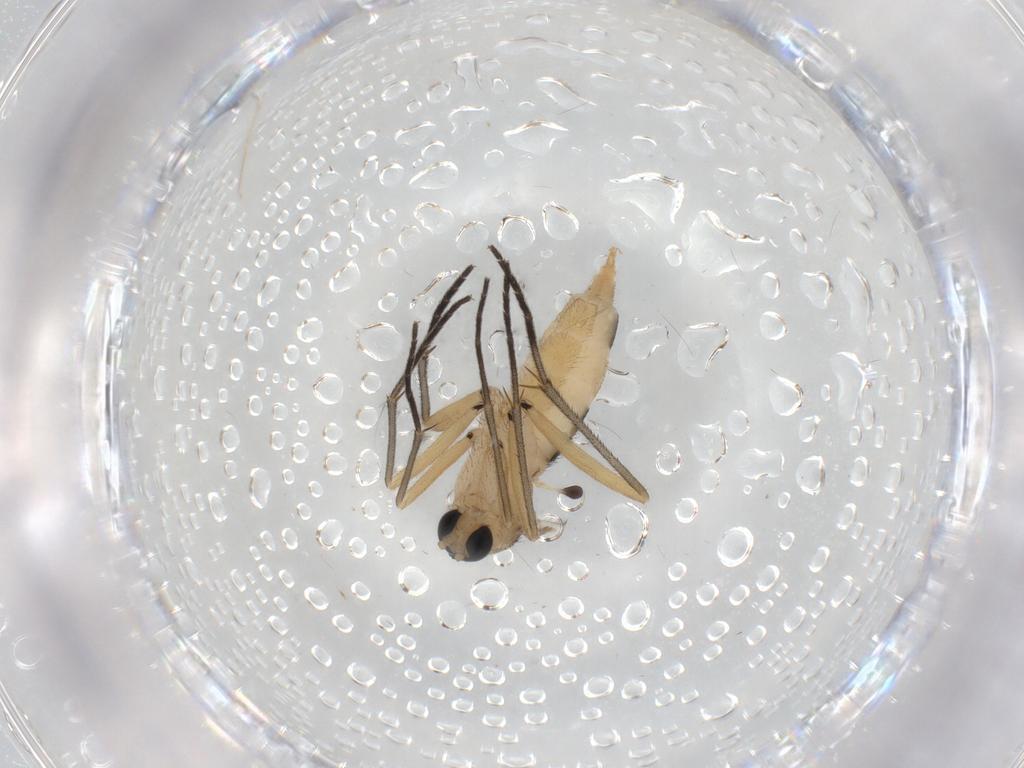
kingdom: Animalia
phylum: Arthropoda
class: Insecta
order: Diptera
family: Sciaridae
